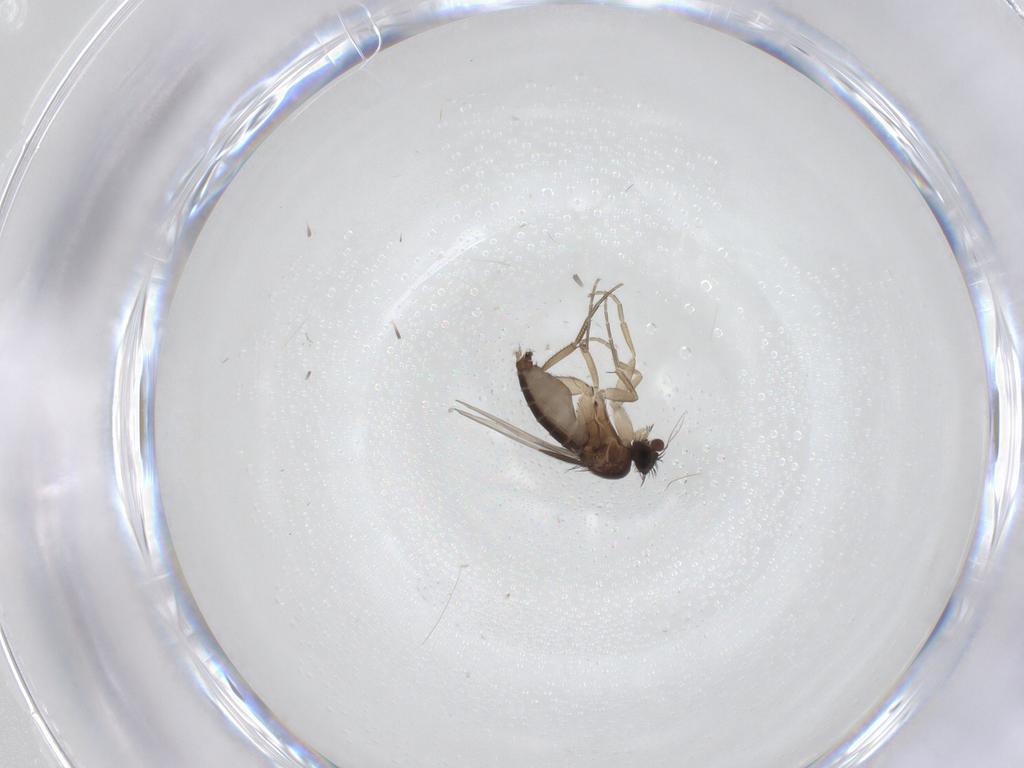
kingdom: Animalia
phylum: Arthropoda
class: Insecta
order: Diptera
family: Phoridae
